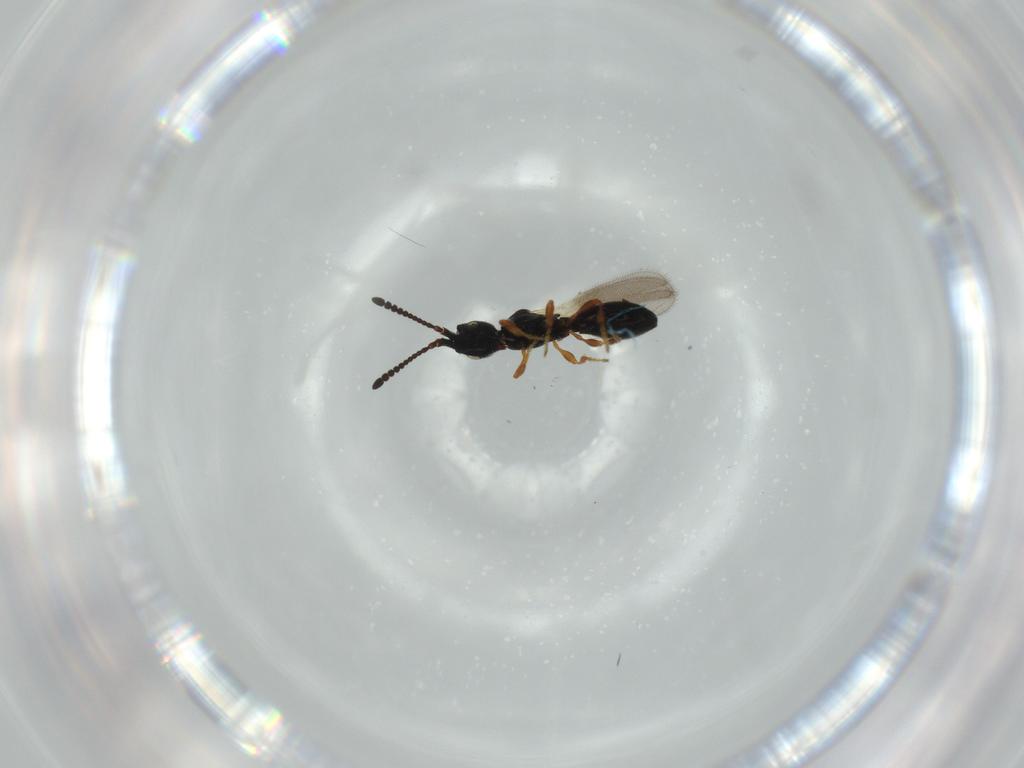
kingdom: Animalia
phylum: Arthropoda
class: Insecta
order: Hymenoptera
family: Diapriidae
